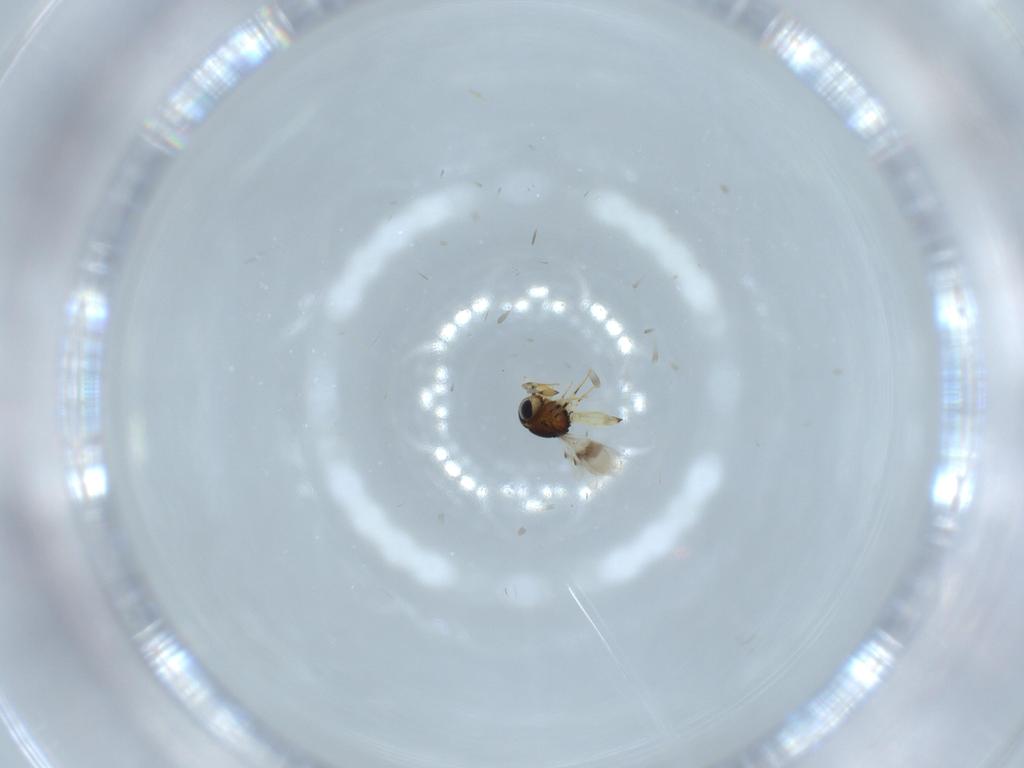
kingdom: Animalia
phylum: Arthropoda
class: Insecta
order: Hymenoptera
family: Scelionidae
